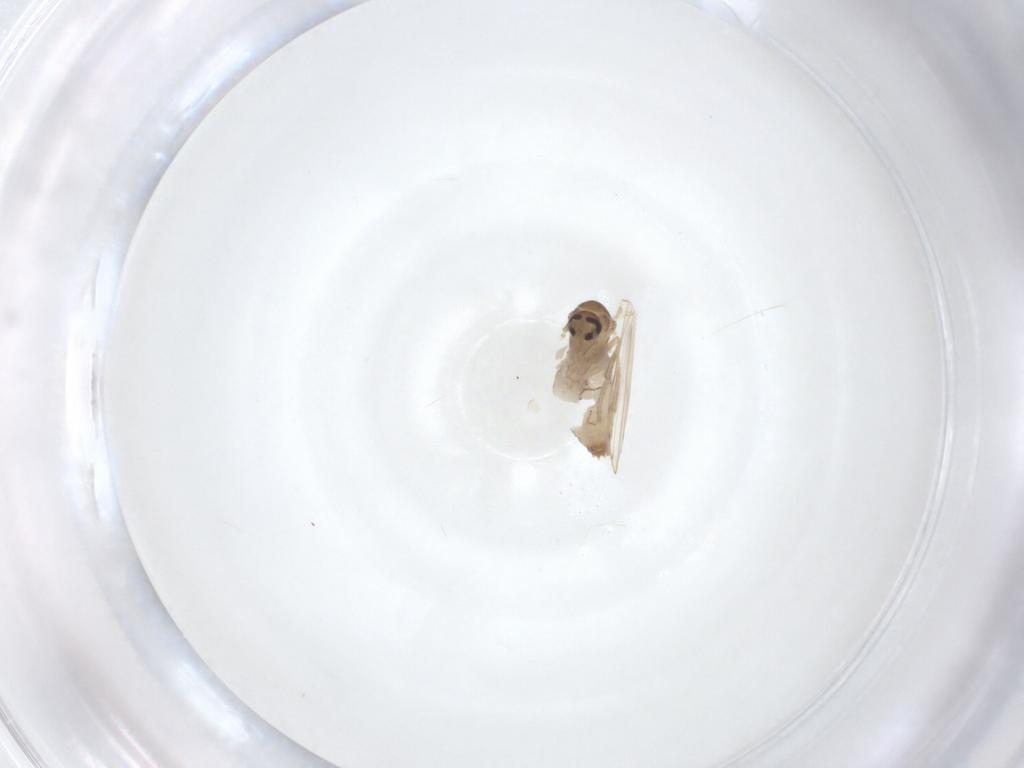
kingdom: Animalia
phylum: Arthropoda
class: Insecta
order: Diptera
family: Psychodidae
